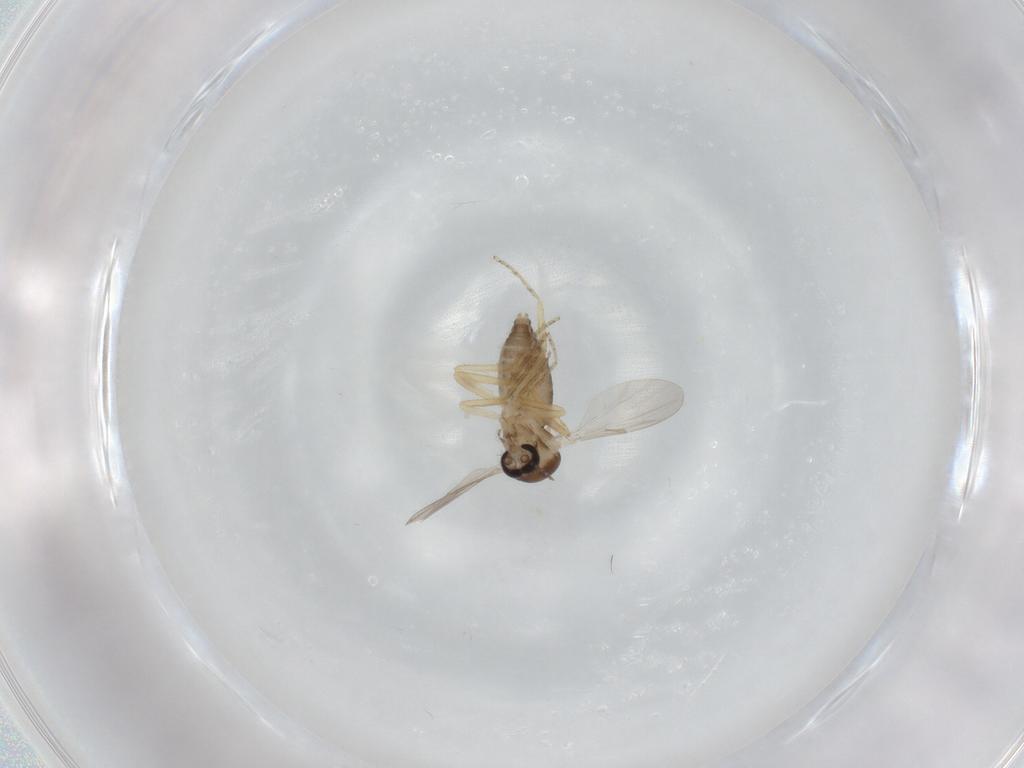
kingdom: Animalia
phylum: Arthropoda
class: Insecta
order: Diptera
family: Ceratopogonidae
